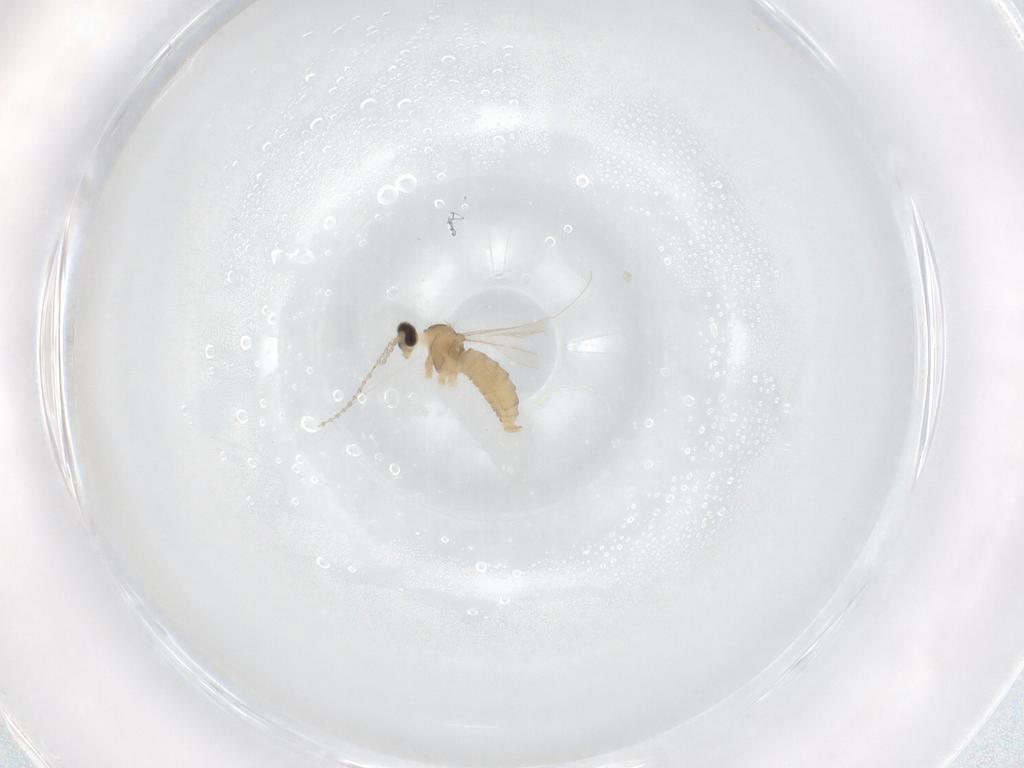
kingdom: Animalia
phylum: Arthropoda
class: Insecta
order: Diptera
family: Cecidomyiidae
